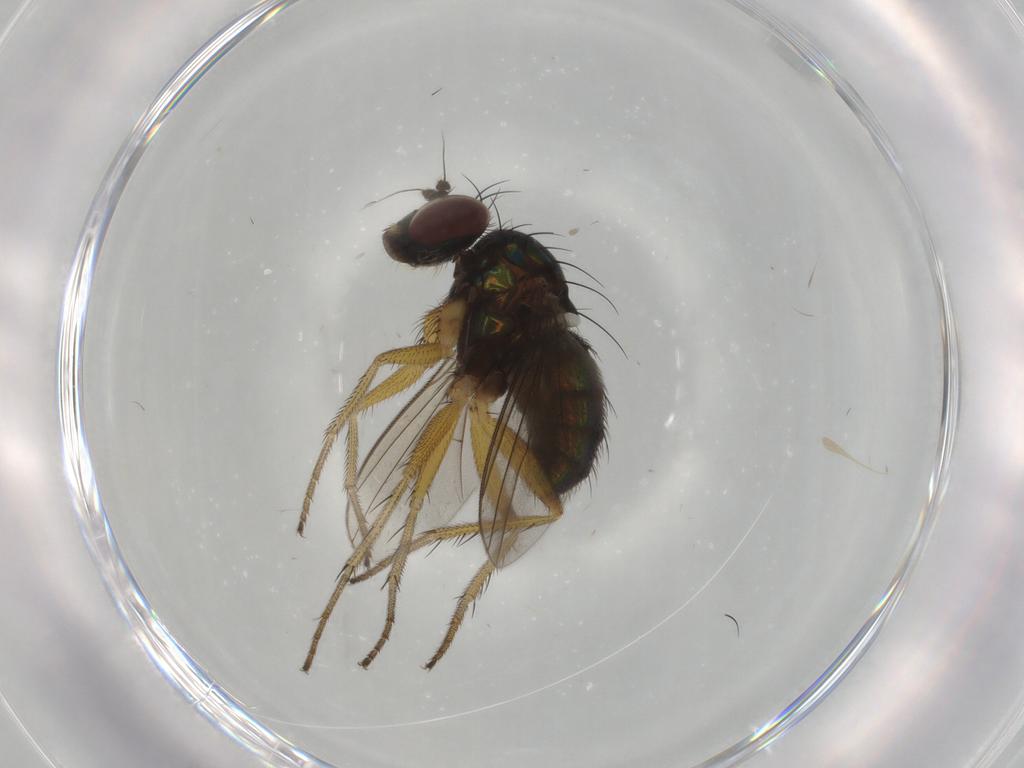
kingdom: Animalia
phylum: Arthropoda
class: Insecta
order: Diptera
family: Dolichopodidae
